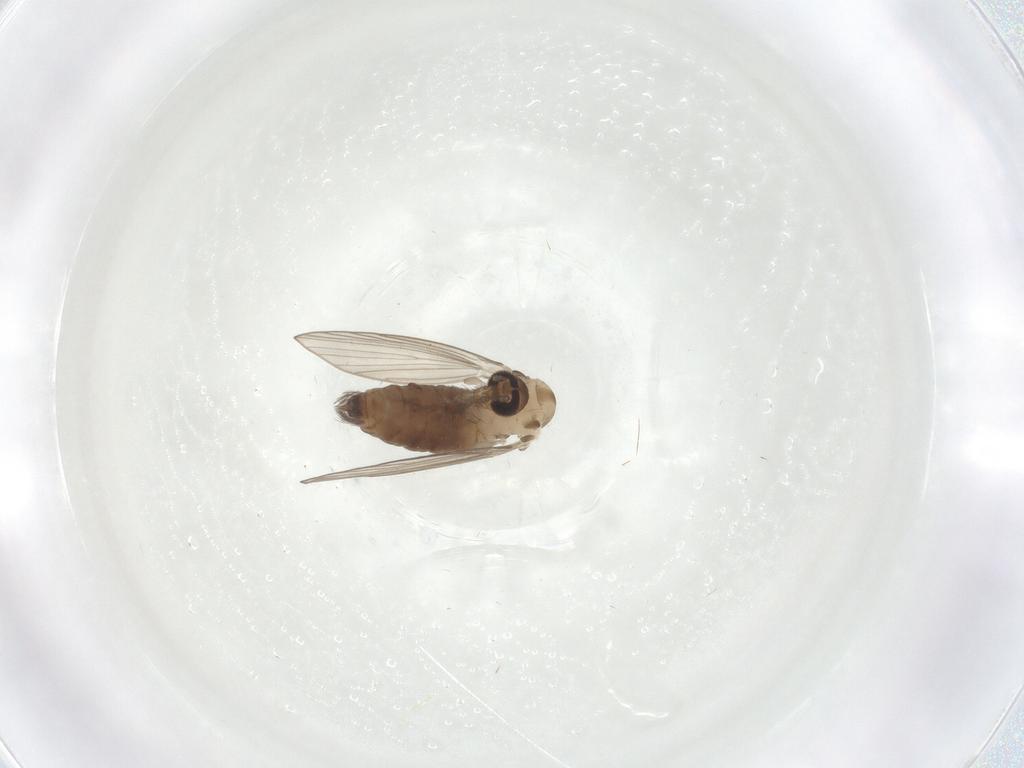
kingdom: Animalia
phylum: Arthropoda
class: Insecta
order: Diptera
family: Psychodidae
